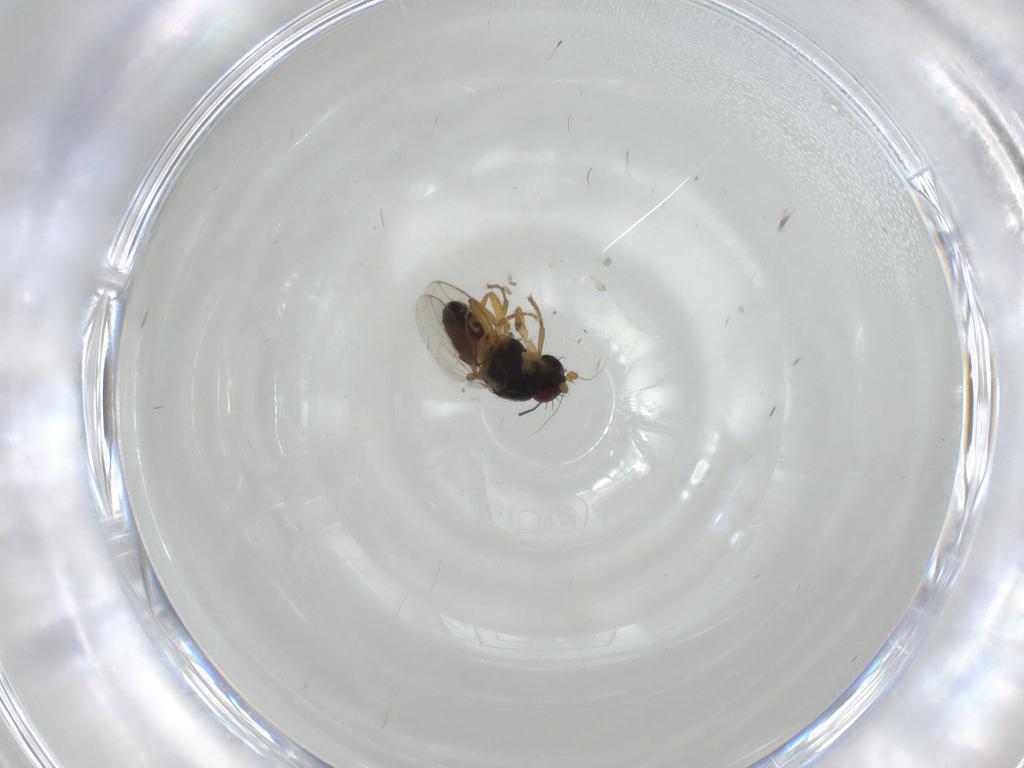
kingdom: Animalia
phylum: Arthropoda
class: Insecta
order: Diptera
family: Sphaeroceridae
